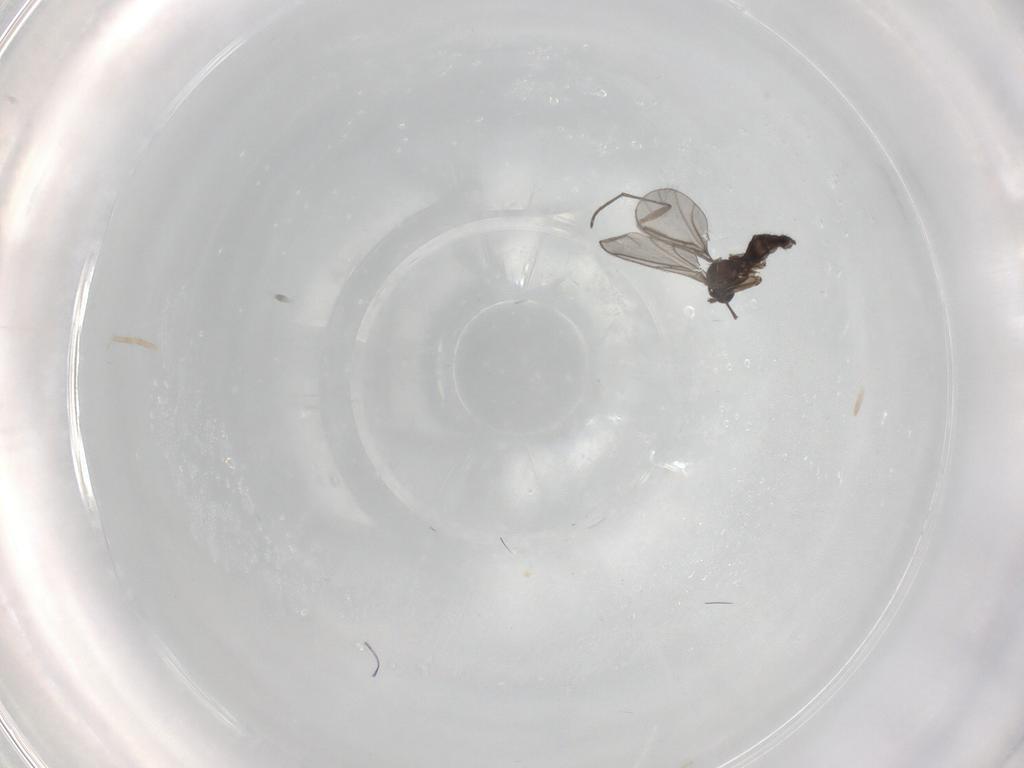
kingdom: Animalia
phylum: Arthropoda
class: Insecta
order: Diptera
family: Phoridae
